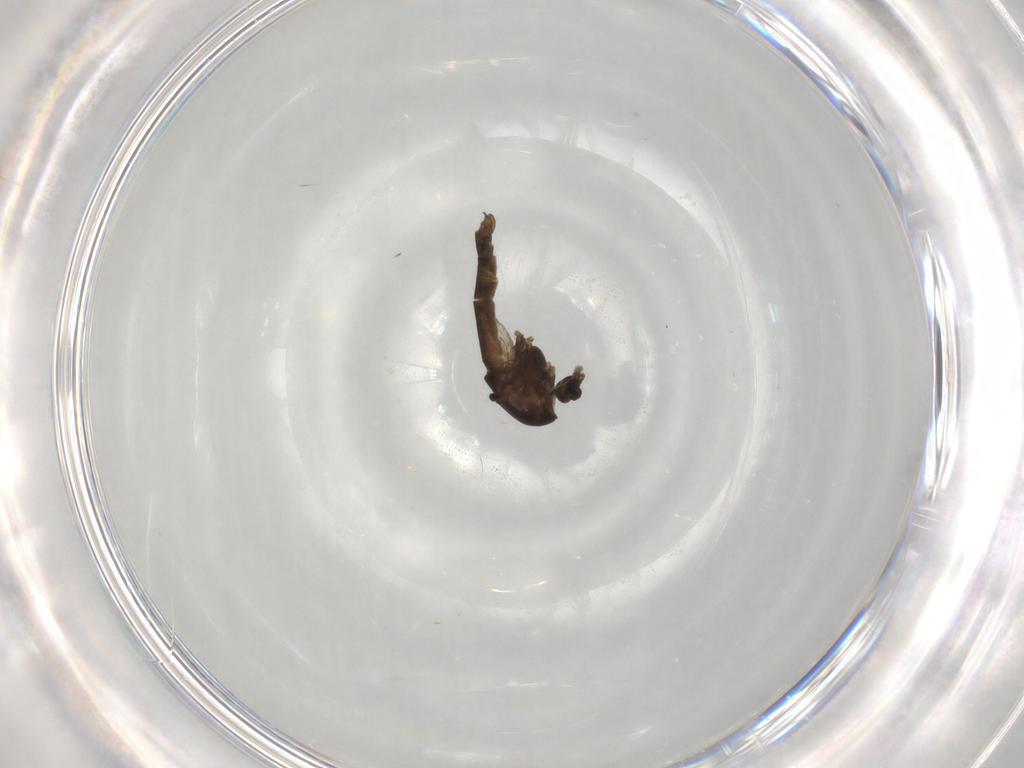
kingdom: Animalia
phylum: Arthropoda
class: Insecta
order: Diptera
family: Chironomidae
